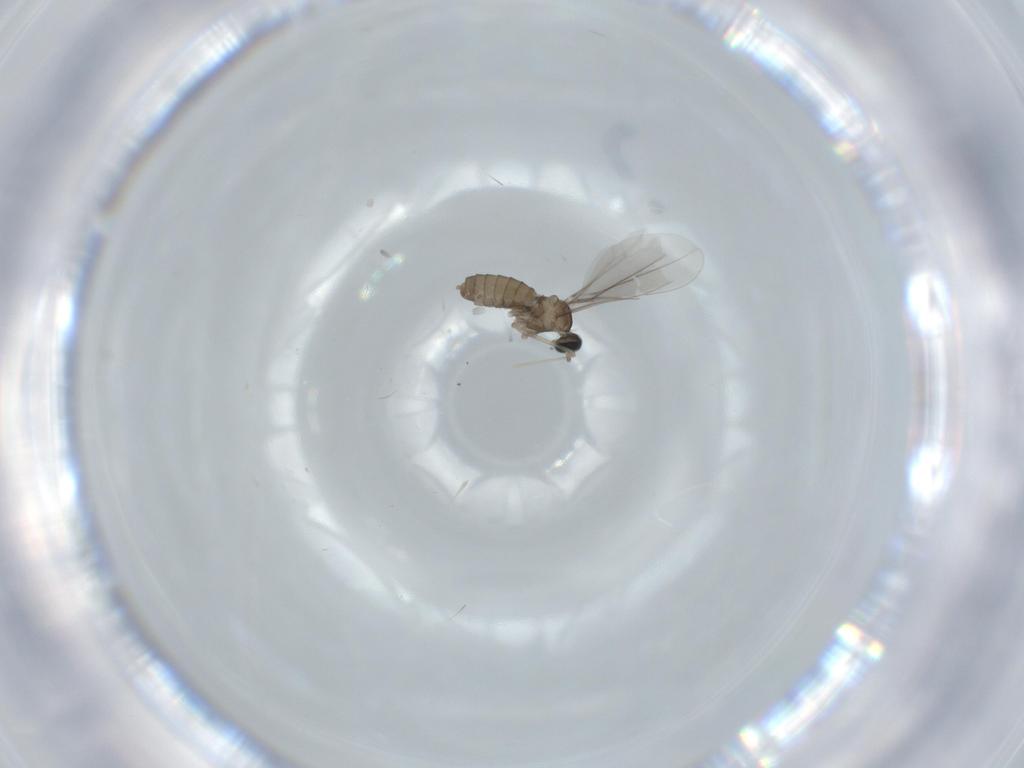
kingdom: Animalia
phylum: Arthropoda
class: Insecta
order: Diptera
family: Cecidomyiidae
